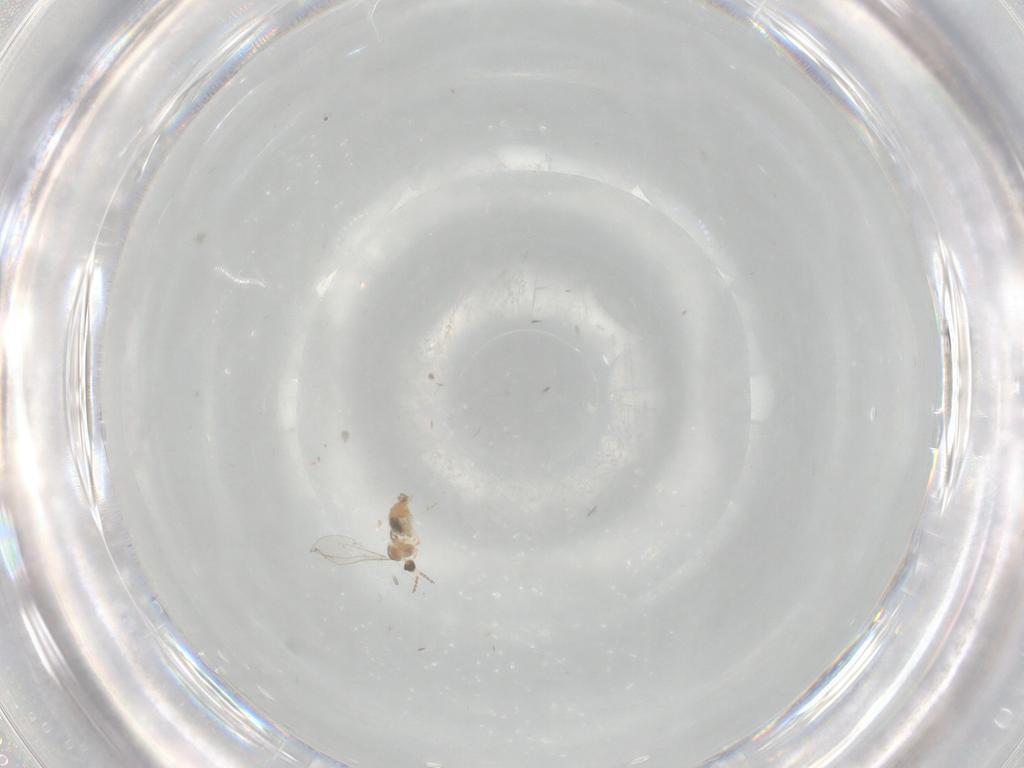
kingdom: Animalia
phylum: Arthropoda
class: Insecta
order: Diptera
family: Cecidomyiidae
